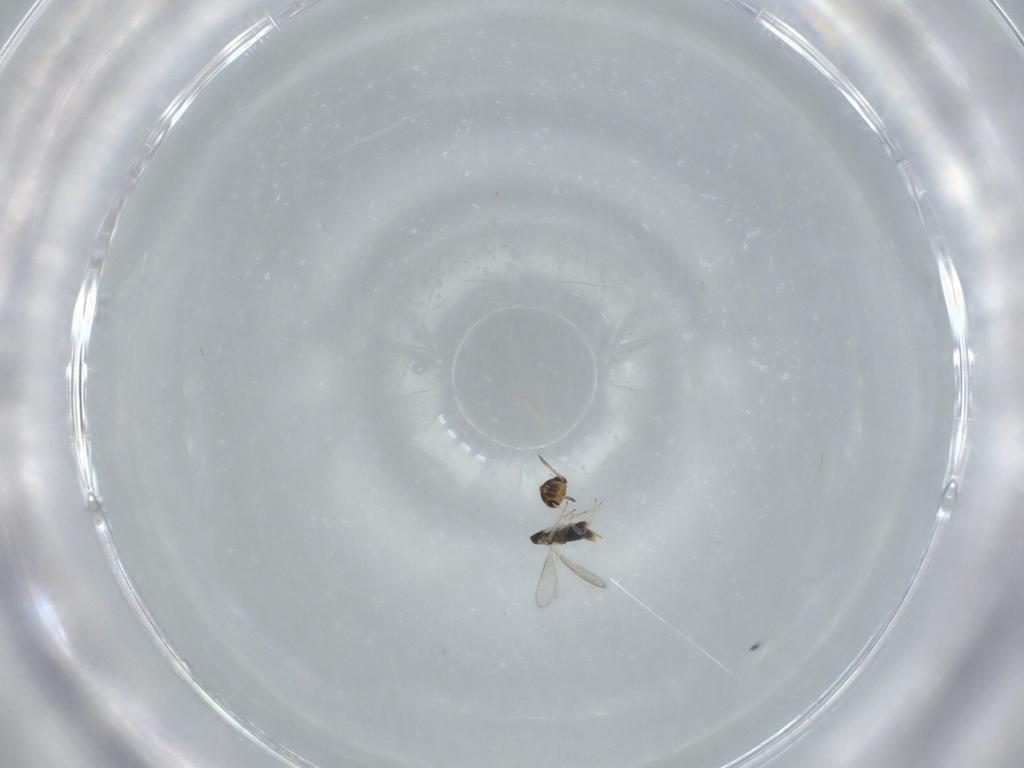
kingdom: Animalia
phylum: Arthropoda
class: Insecta
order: Hymenoptera
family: Aphelinidae
